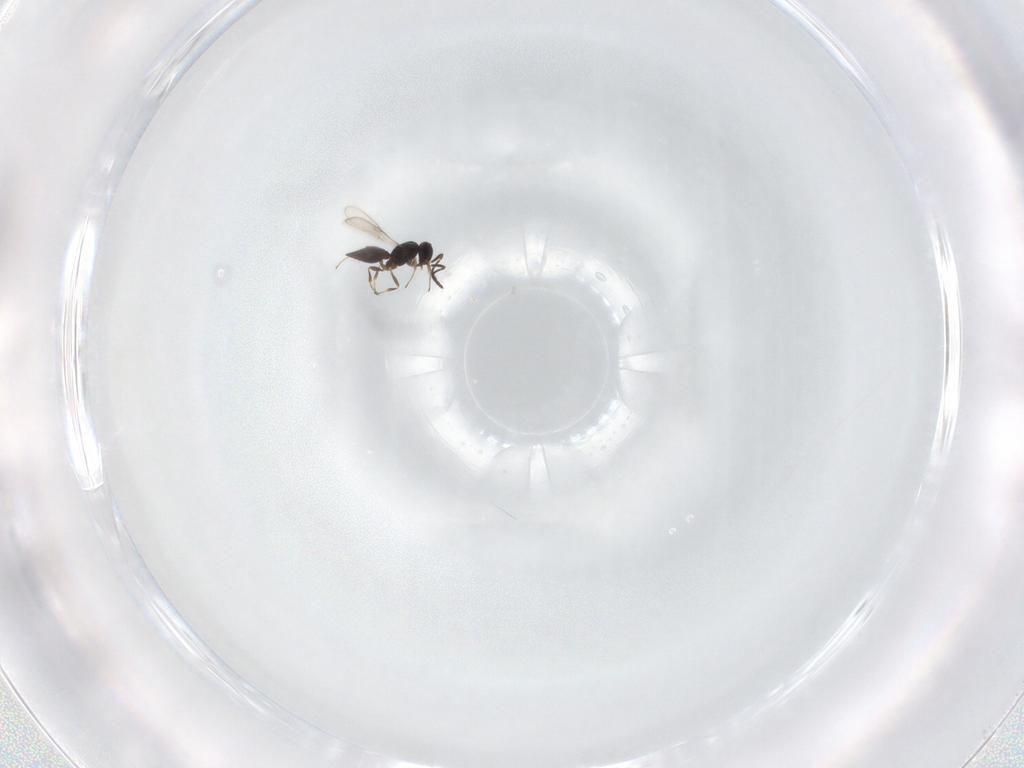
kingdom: Animalia
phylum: Arthropoda
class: Insecta
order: Hymenoptera
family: Scelionidae
